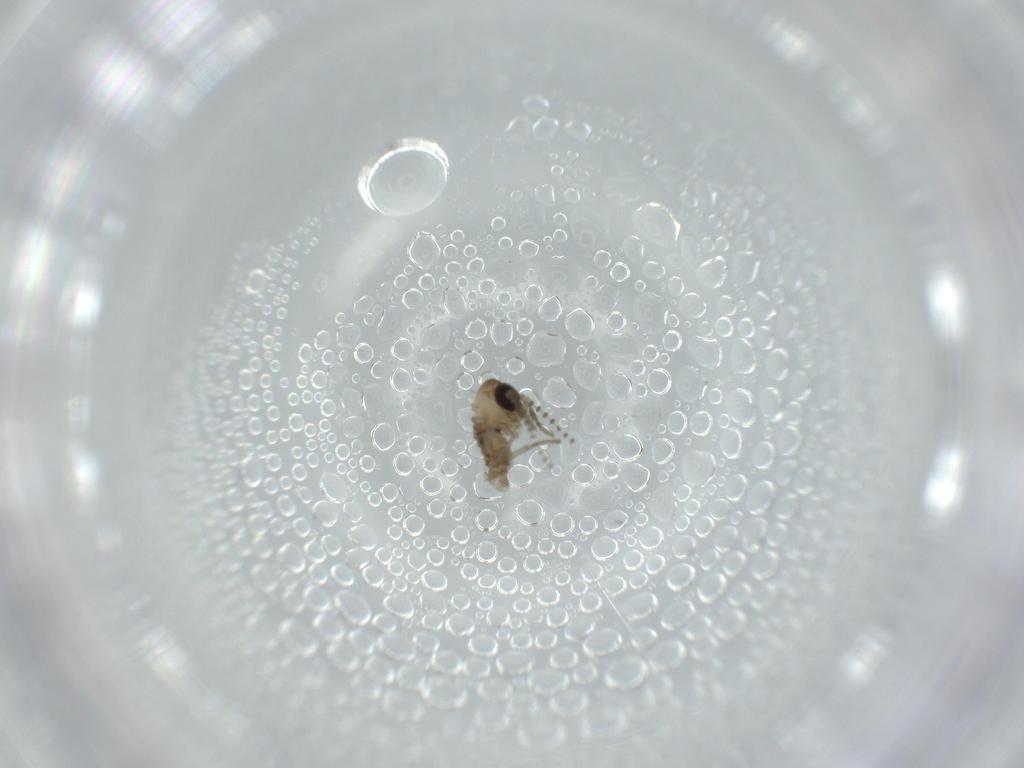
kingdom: Animalia
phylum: Arthropoda
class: Insecta
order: Diptera
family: Psychodidae
